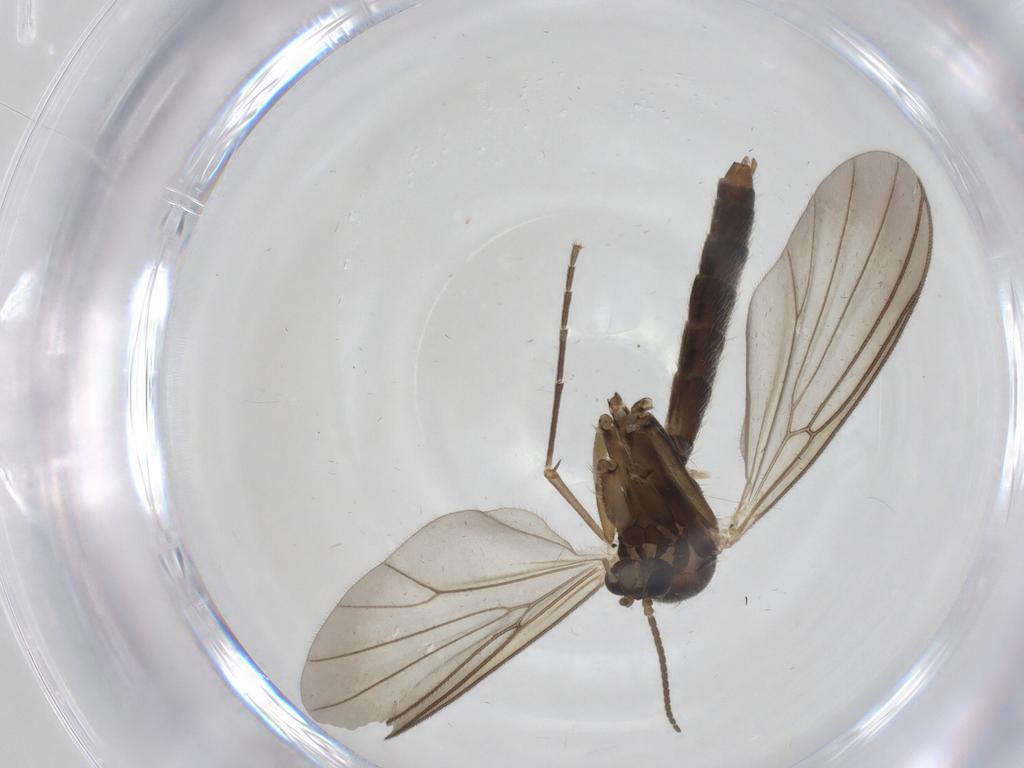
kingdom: Animalia
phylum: Arthropoda
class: Insecta
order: Diptera
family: Mycetophilidae
